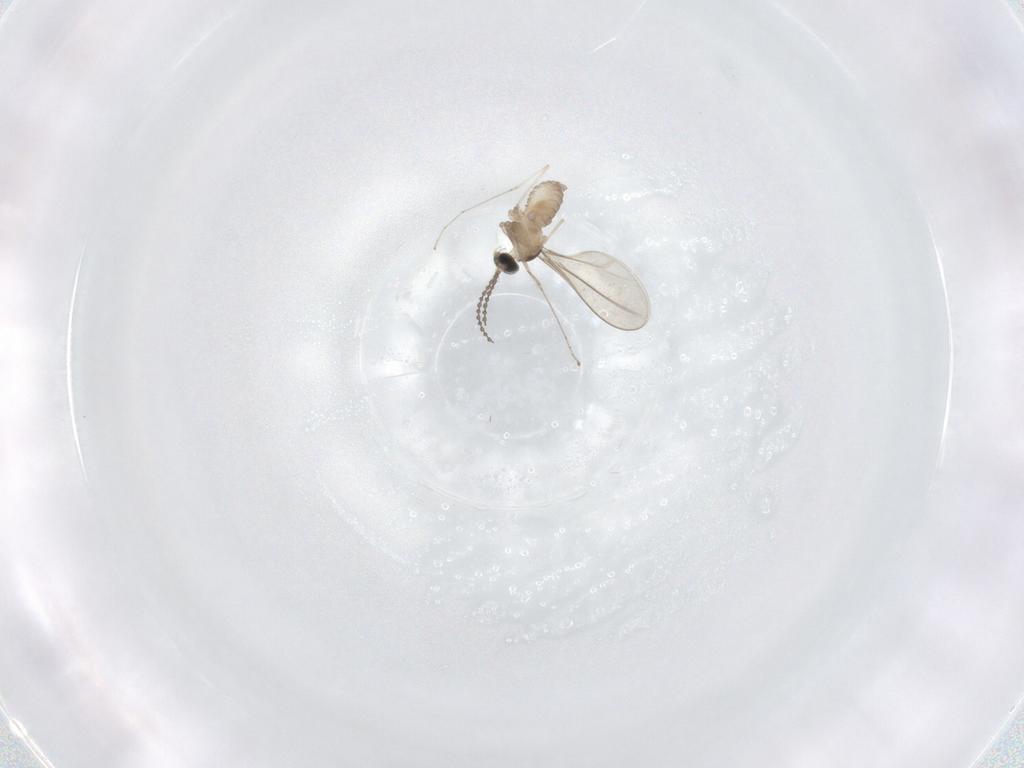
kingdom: Animalia
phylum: Arthropoda
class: Insecta
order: Diptera
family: Cecidomyiidae
